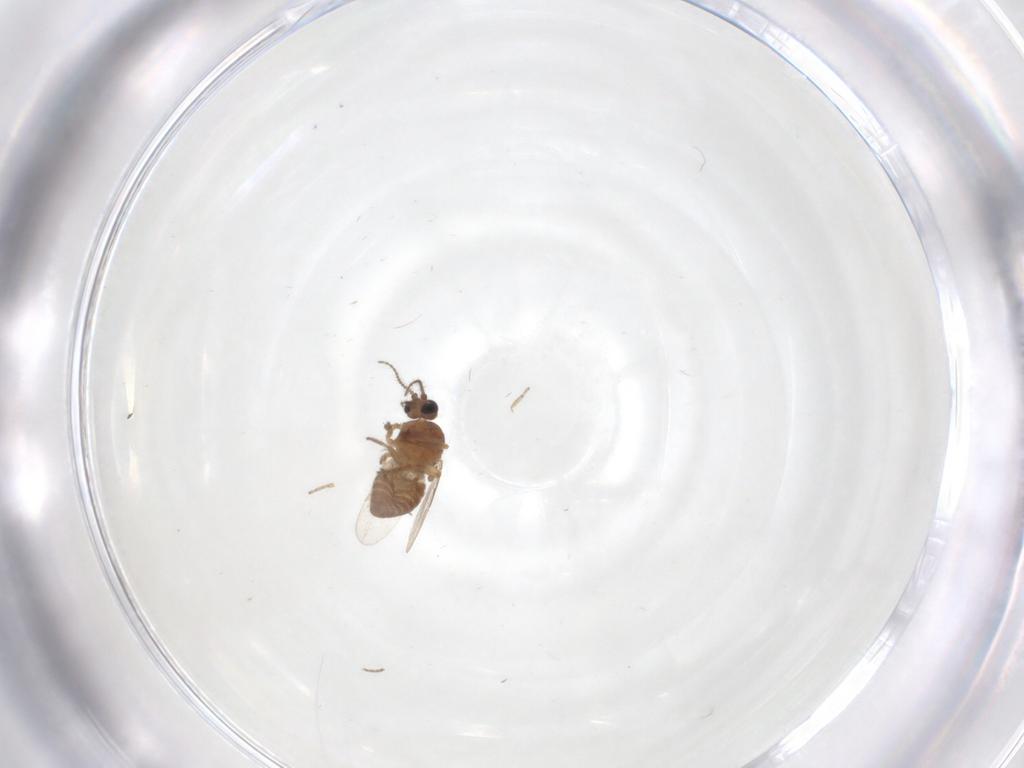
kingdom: Animalia
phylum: Arthropoda
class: Insecta
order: Diptera
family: Ceratopogonidae
